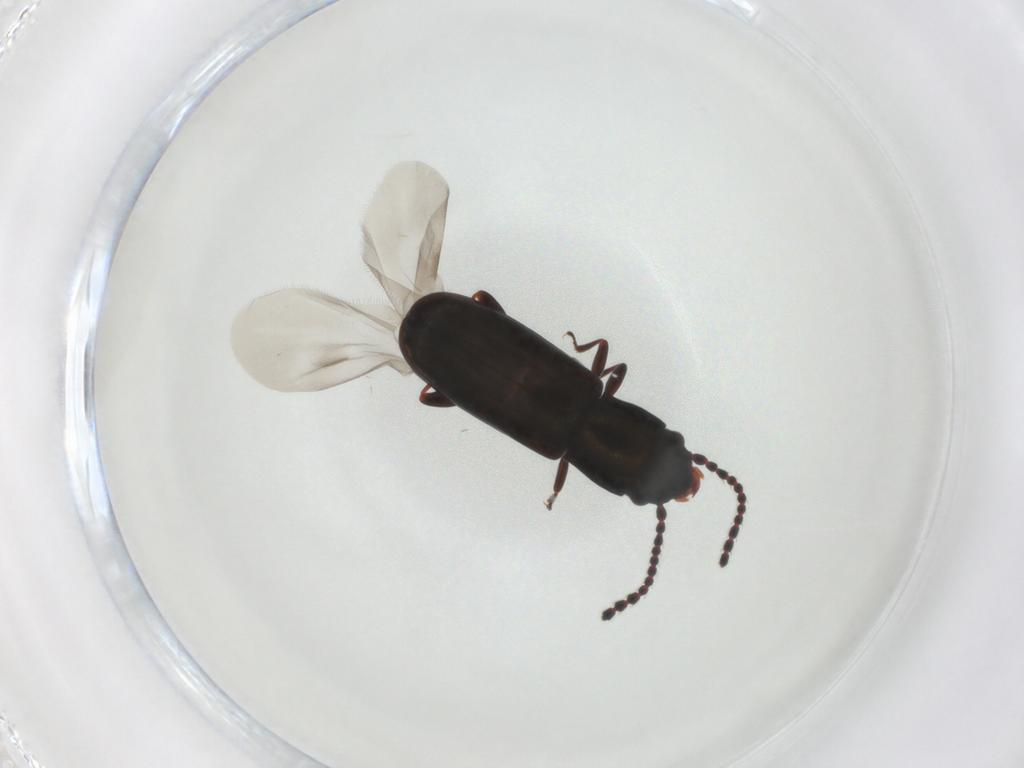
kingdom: Animalia
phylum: Arthropoda
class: Insecta
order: Coleoptera
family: Laemophloeidae
